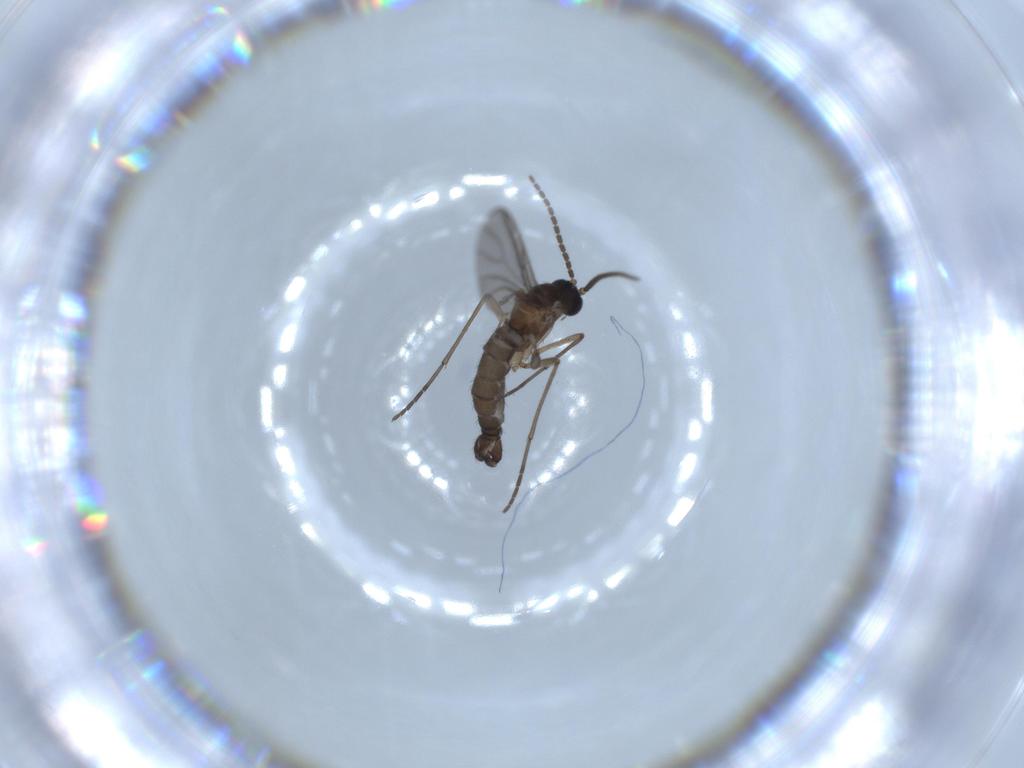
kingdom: Animalia
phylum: Arthropoda
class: Insecta
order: Diptera
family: Sciaridae
